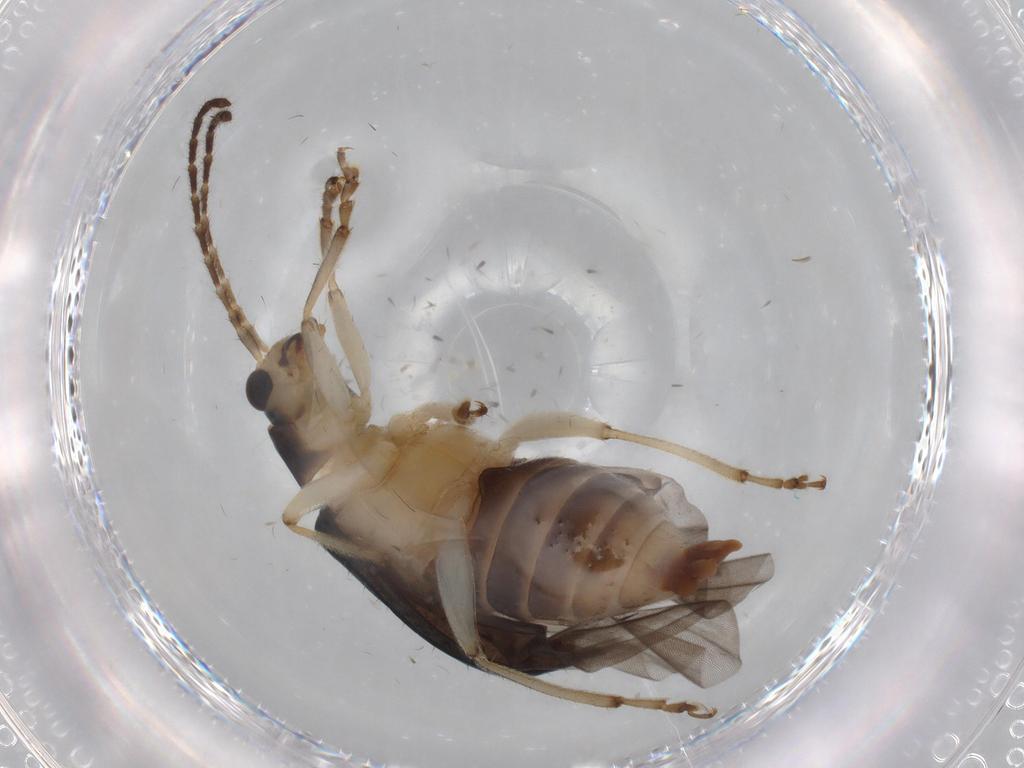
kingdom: Animalia
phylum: Arthropoda
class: Insecta
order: Coleoptera
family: Chrysomelidae
